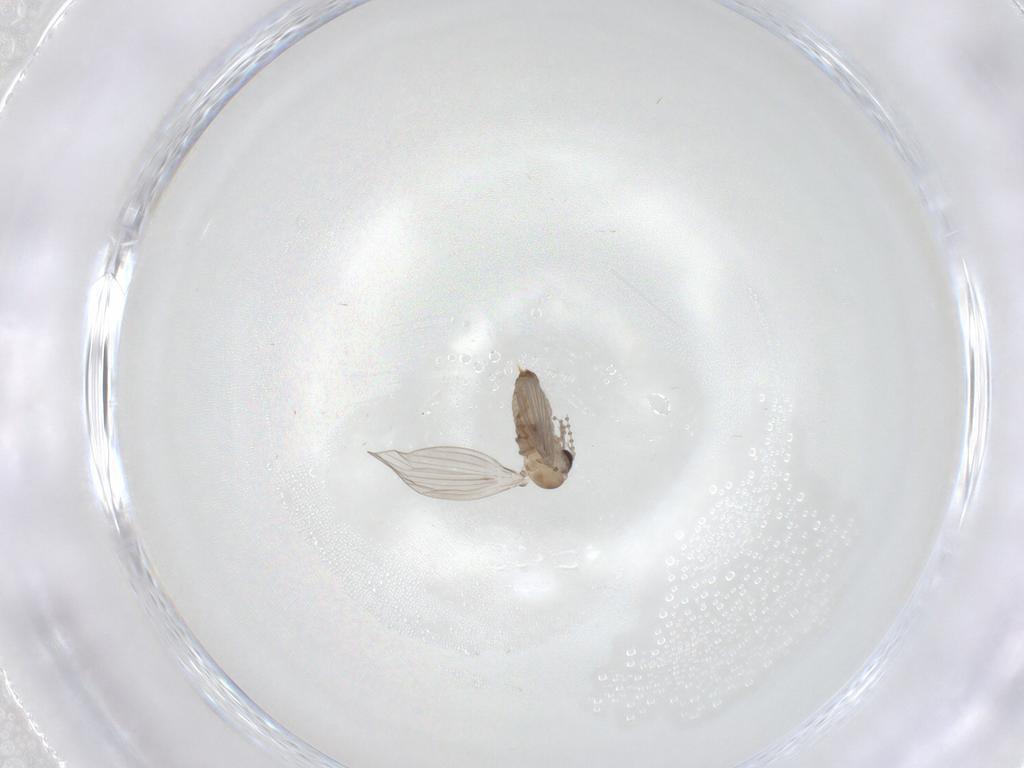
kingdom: Animalia
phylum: Arthropoda
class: Insecta
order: Diptera
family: Psychodidae
